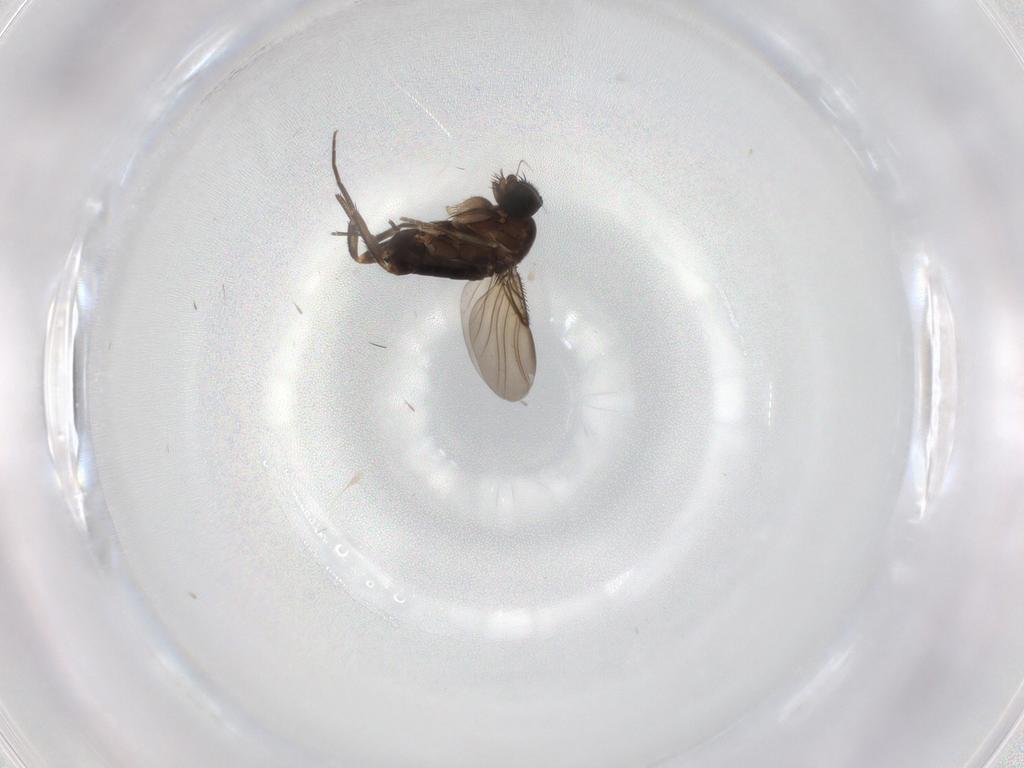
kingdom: Animalia
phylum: Arthropoda
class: Insecta
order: Diptera
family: Phoridae
